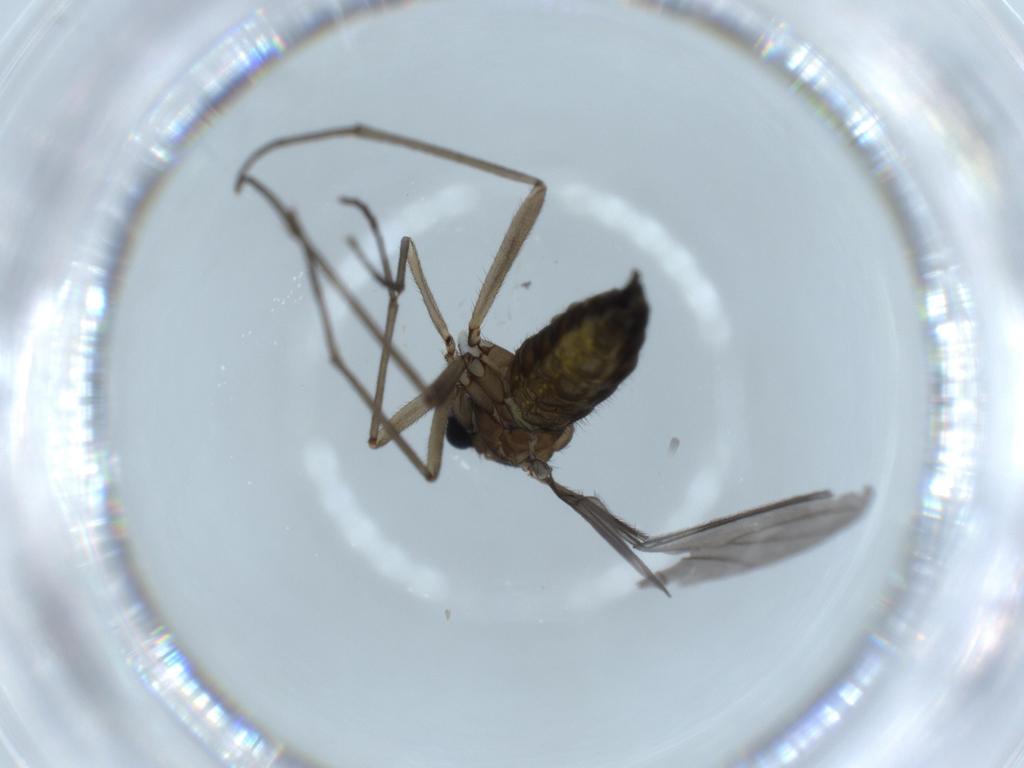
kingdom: Animalia
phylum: Arthropoda
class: Insecta
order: Diptera
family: Sciaridae
